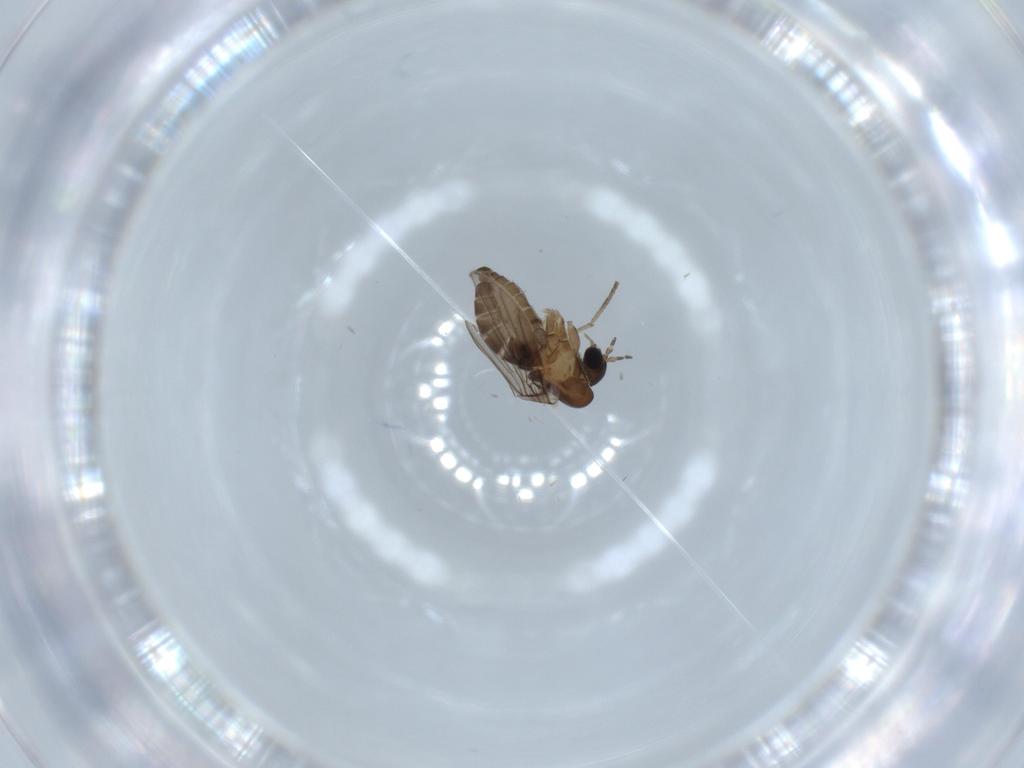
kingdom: Animalia
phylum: Arthropoda
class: Insecta
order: Diptera
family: Psychodidae
